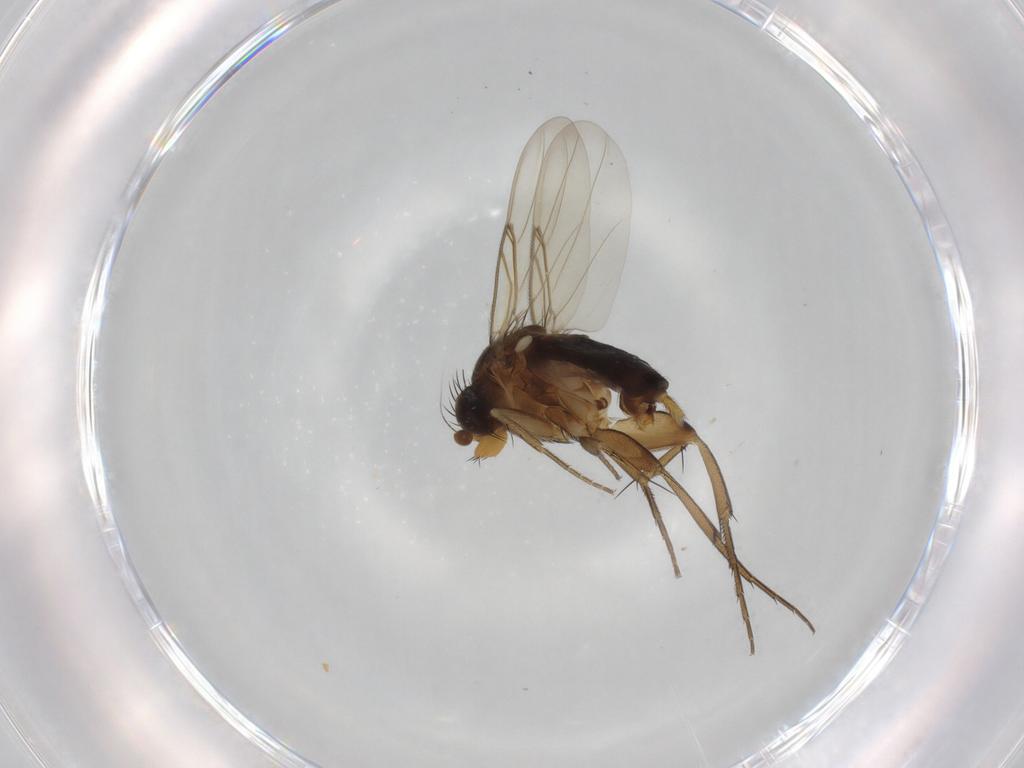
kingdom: Animalia
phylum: Arthropoda
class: Insecta
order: Diptera
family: Phoridae
